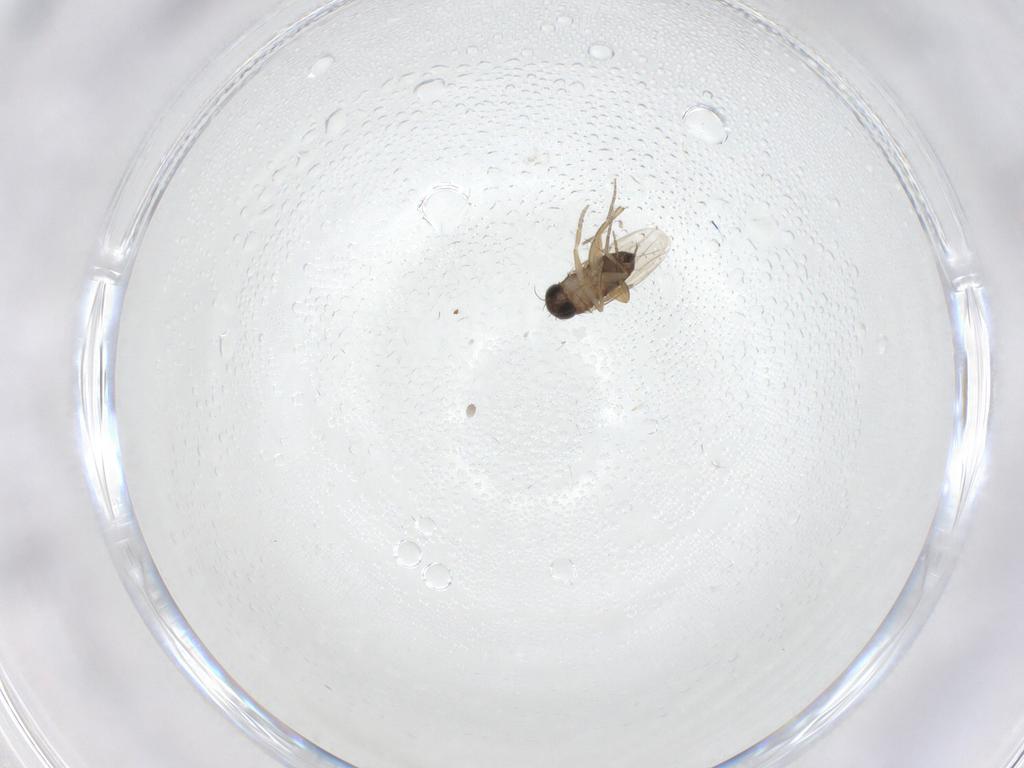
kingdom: Animalia
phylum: Arthropoda
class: Insecta
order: Diptera
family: Phoridae
